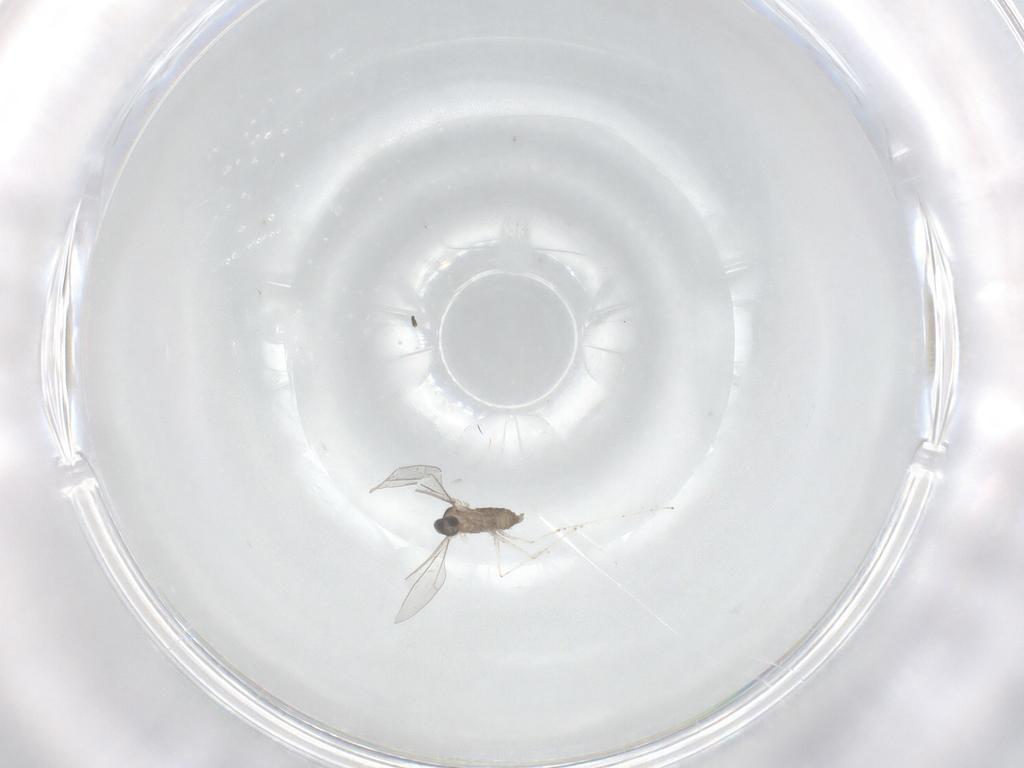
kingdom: Animalia
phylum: Arthropoda
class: Insecta
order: Diptera
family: Cecidomyiidae
